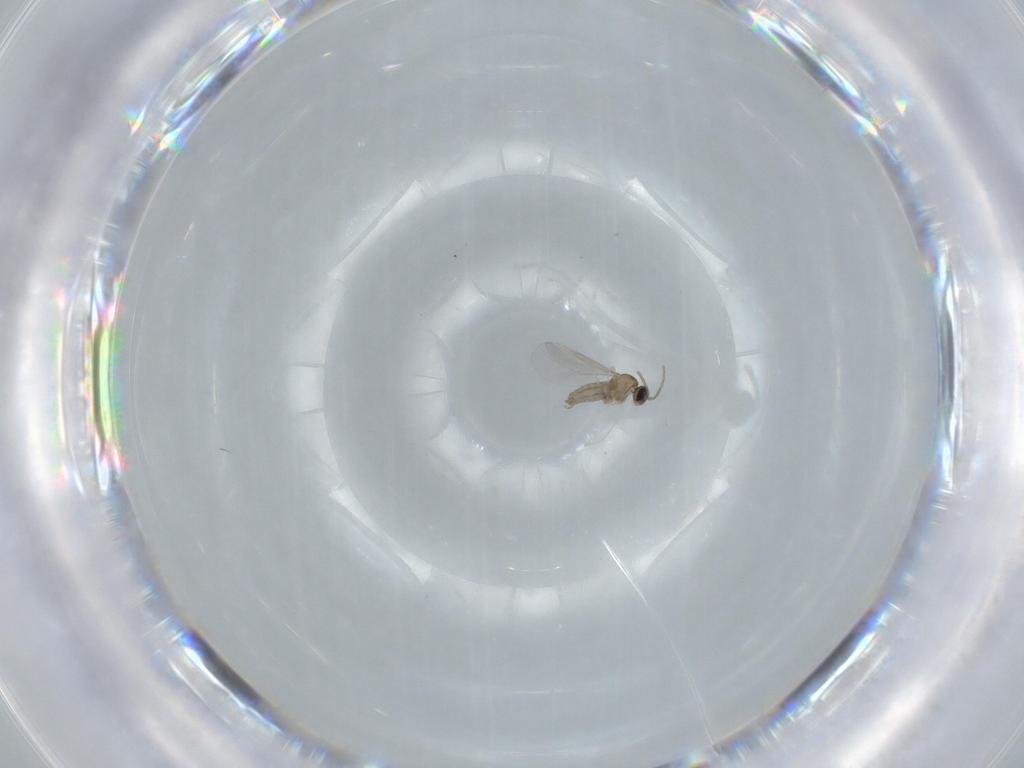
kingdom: Animalia
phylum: Arthropoda
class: Insecta
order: Diptera
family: Cecidomyiidae
